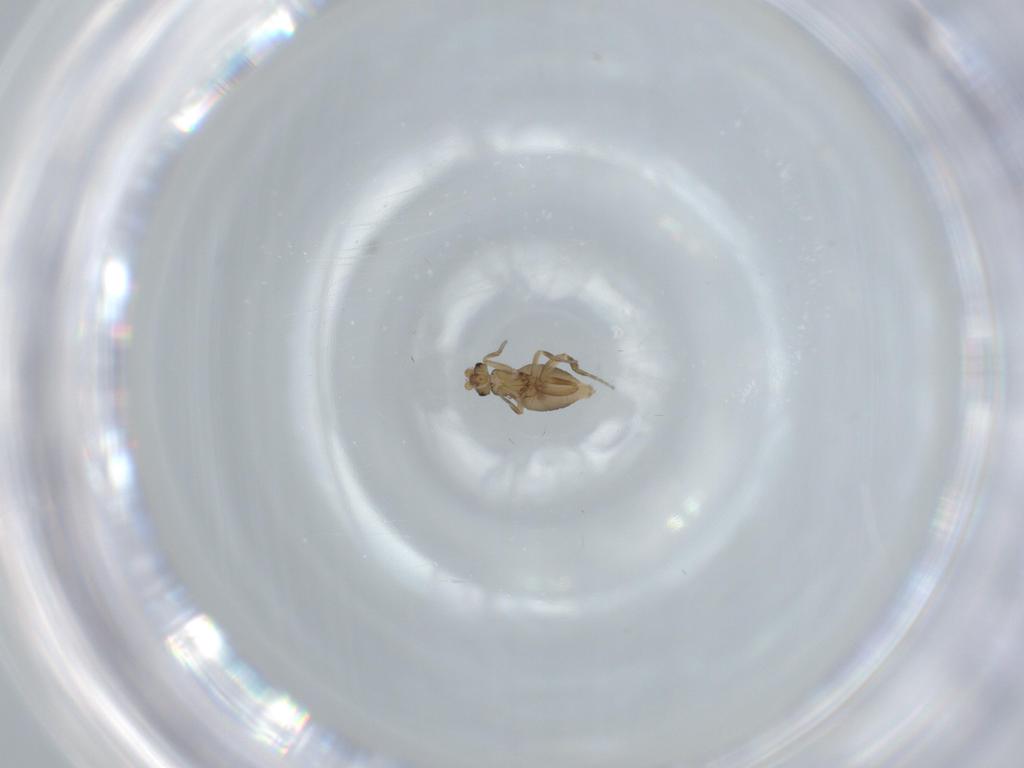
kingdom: Animalia
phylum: Arthropoda
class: Insecta
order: Diptera
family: Phoridae
